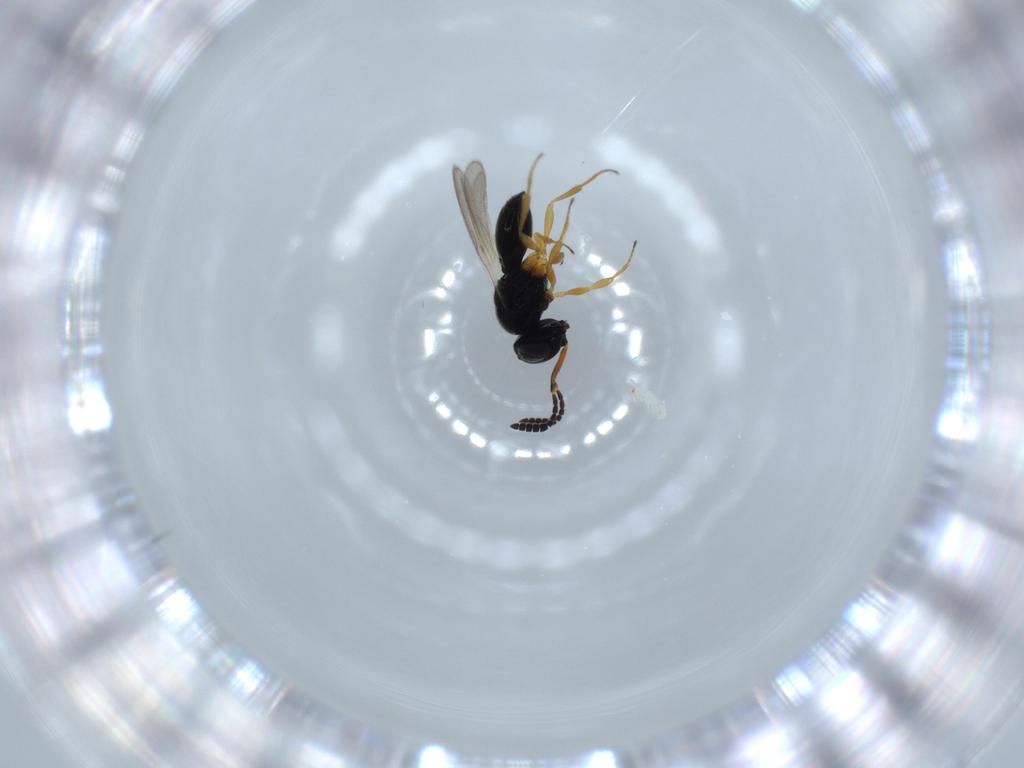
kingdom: Animalia
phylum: Arthropoda
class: Insecta
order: Hymenoptera
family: Scelionidae
